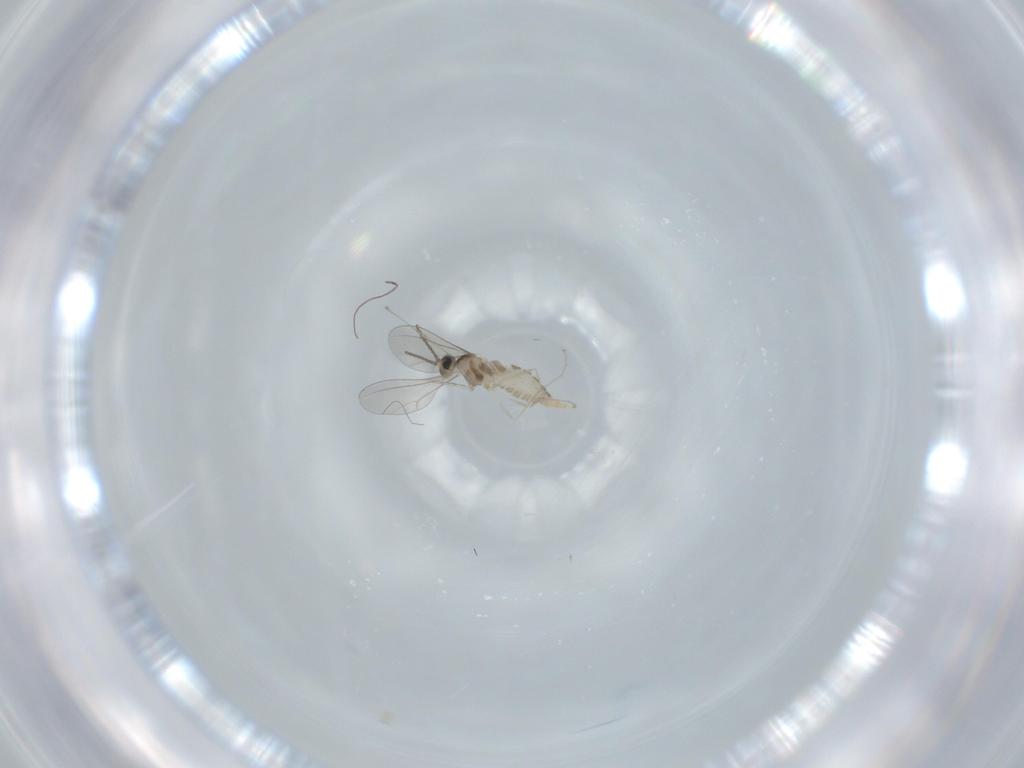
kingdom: Animalia
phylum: Arthropoda
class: Insecta
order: Diptera
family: Cecidomyiidae
